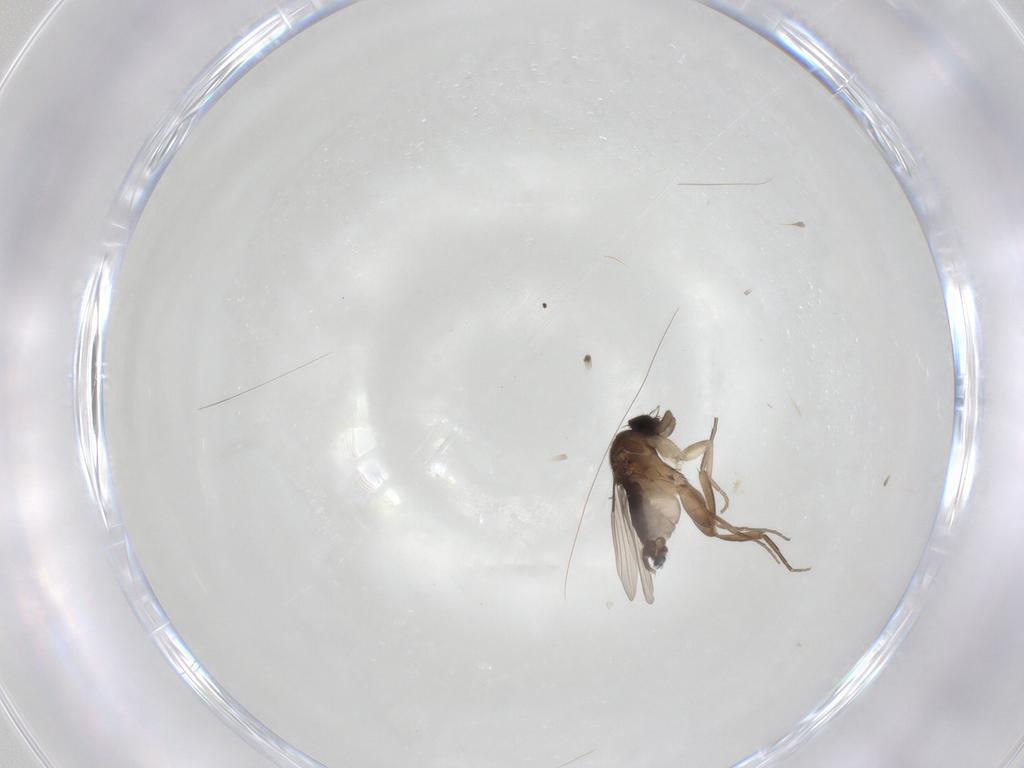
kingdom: Animalia
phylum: Arthropoda
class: Insecta
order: Diptera
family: Phoridae
